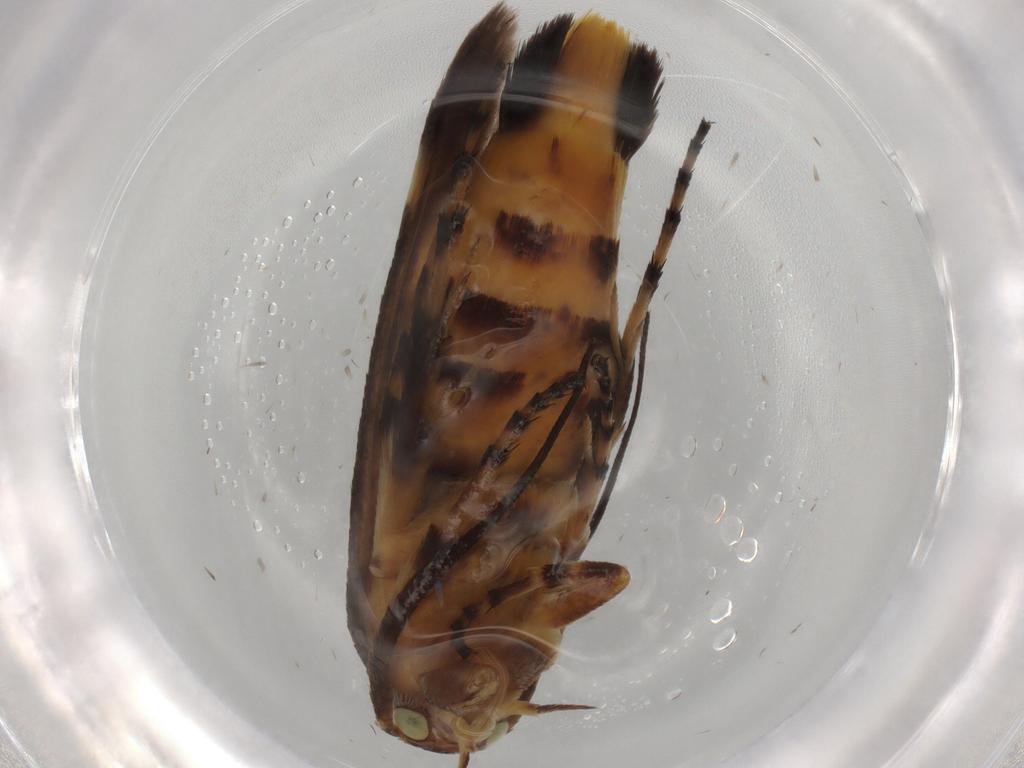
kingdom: Animalia
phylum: Arthropoda
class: Insecta
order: Lepidoptera
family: Scythrididae
